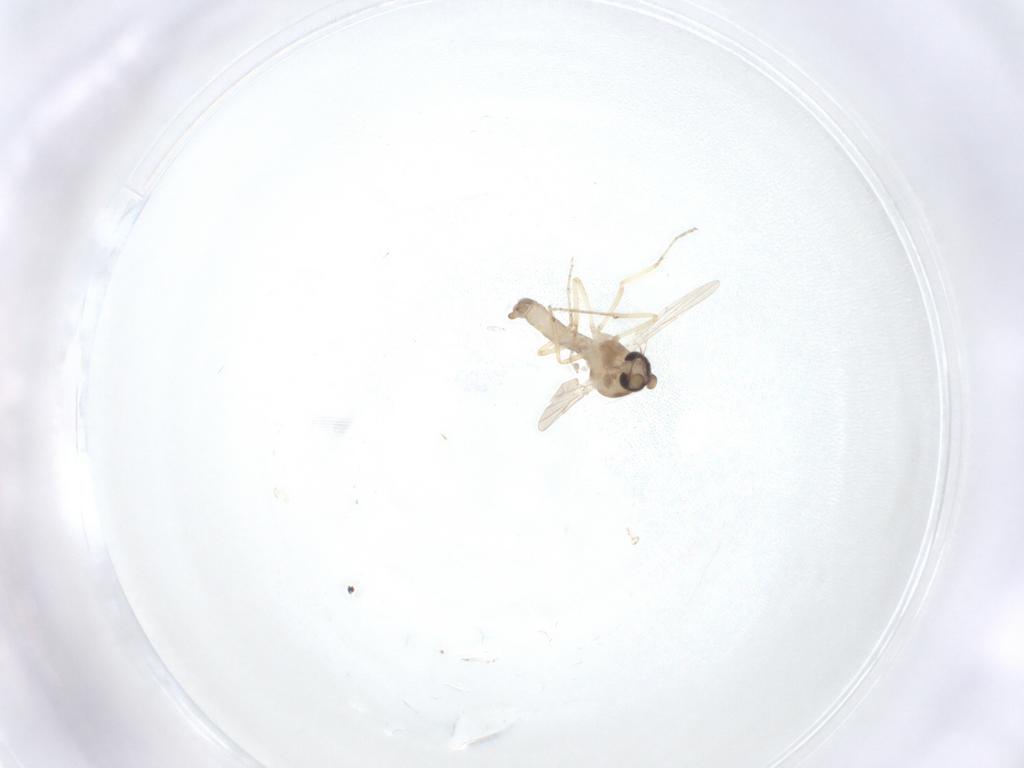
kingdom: Animalia
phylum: Arthropoda
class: Insecta
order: Diptera
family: Ceratopogonidae
